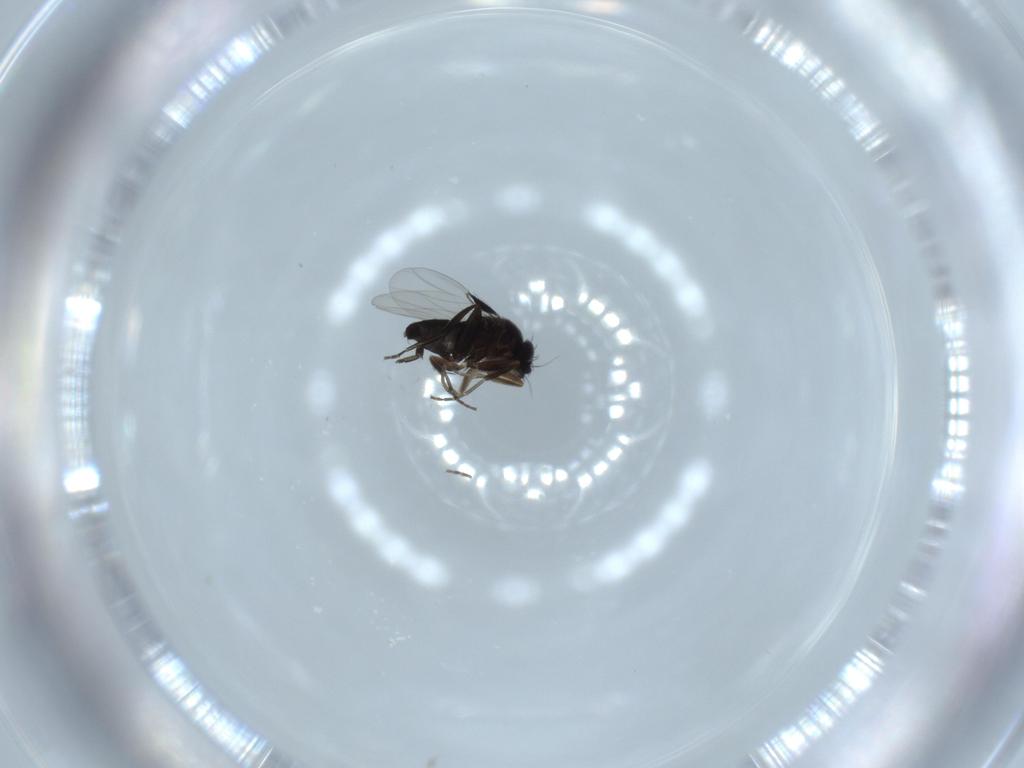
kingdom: Animalia
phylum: Arthropoda
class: Insecta
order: Diptera
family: Phoridae
